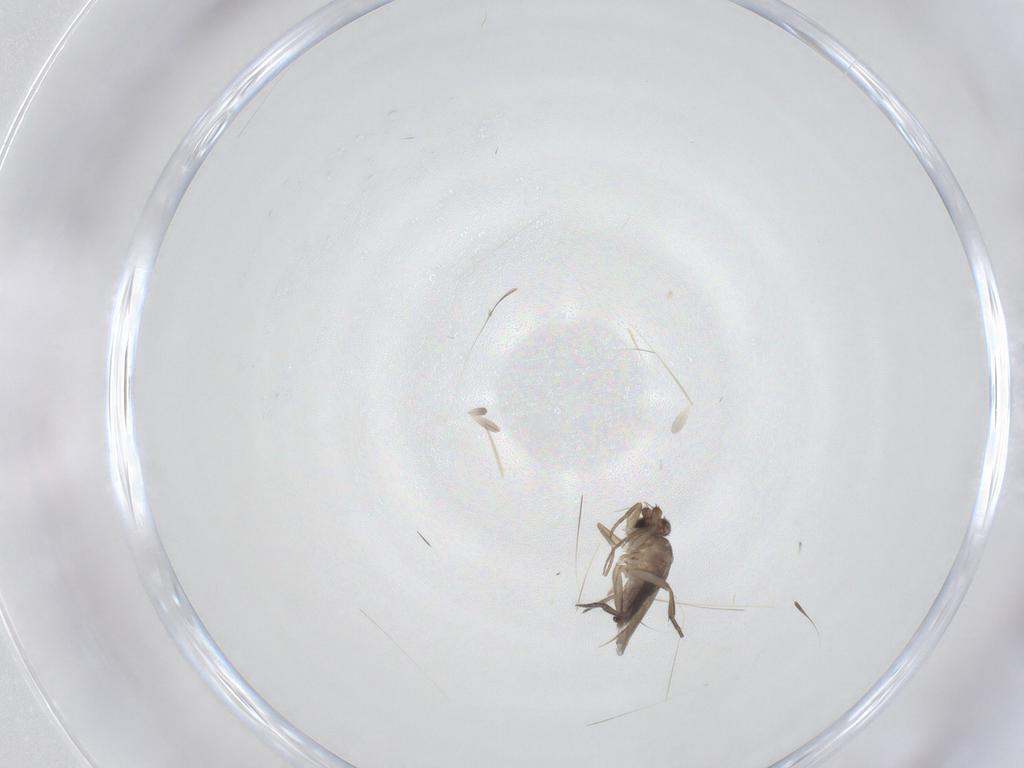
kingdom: Animalia
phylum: Arthropoda
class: Insecta
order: Diptera
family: Phoridae
